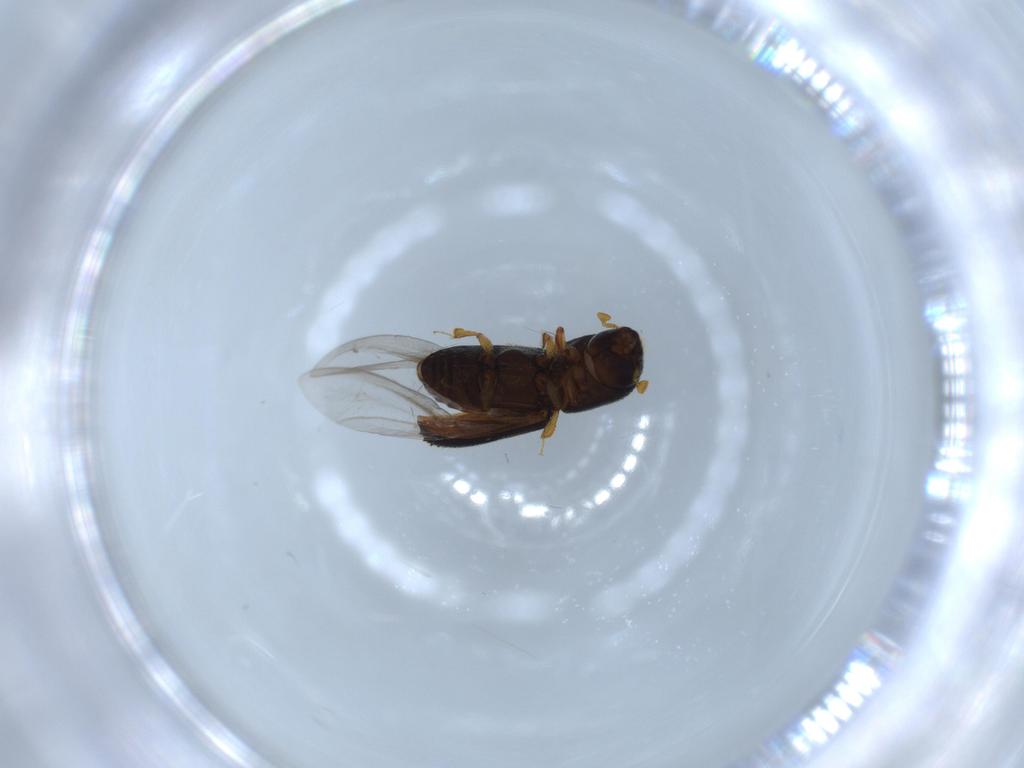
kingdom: Animalia
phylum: Arthropoda
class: Insecta
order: Coleoptera
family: Curculionidae
